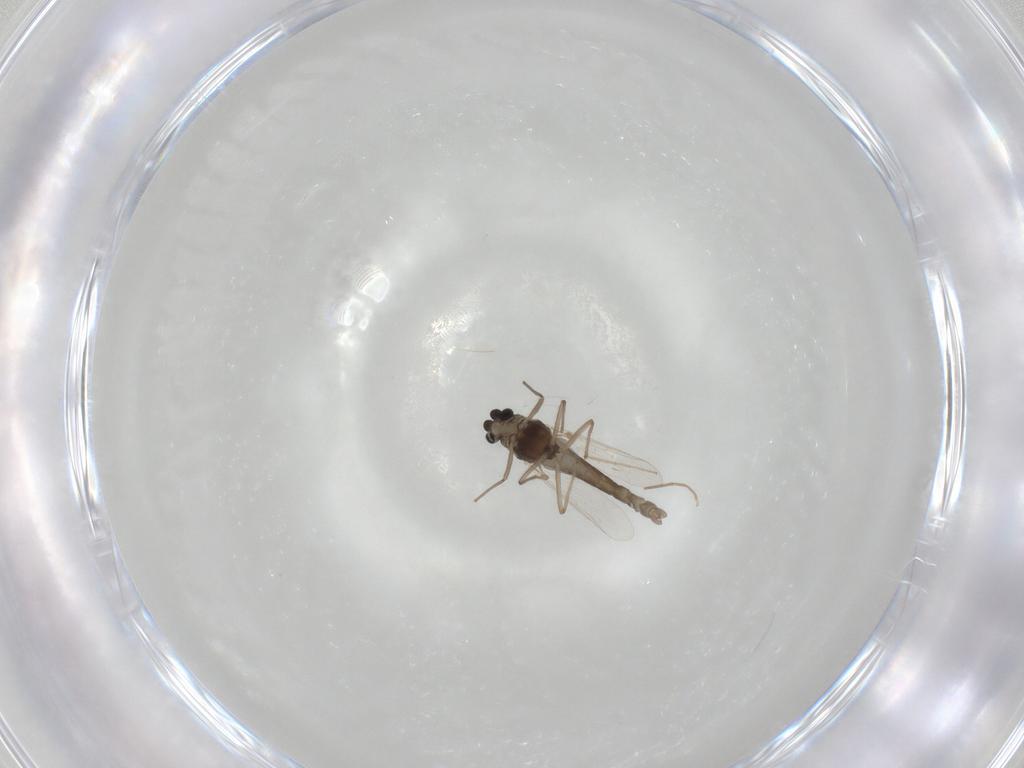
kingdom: Animalia
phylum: Arthropoda
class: Insecta
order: Diptera
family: Chironomidae
